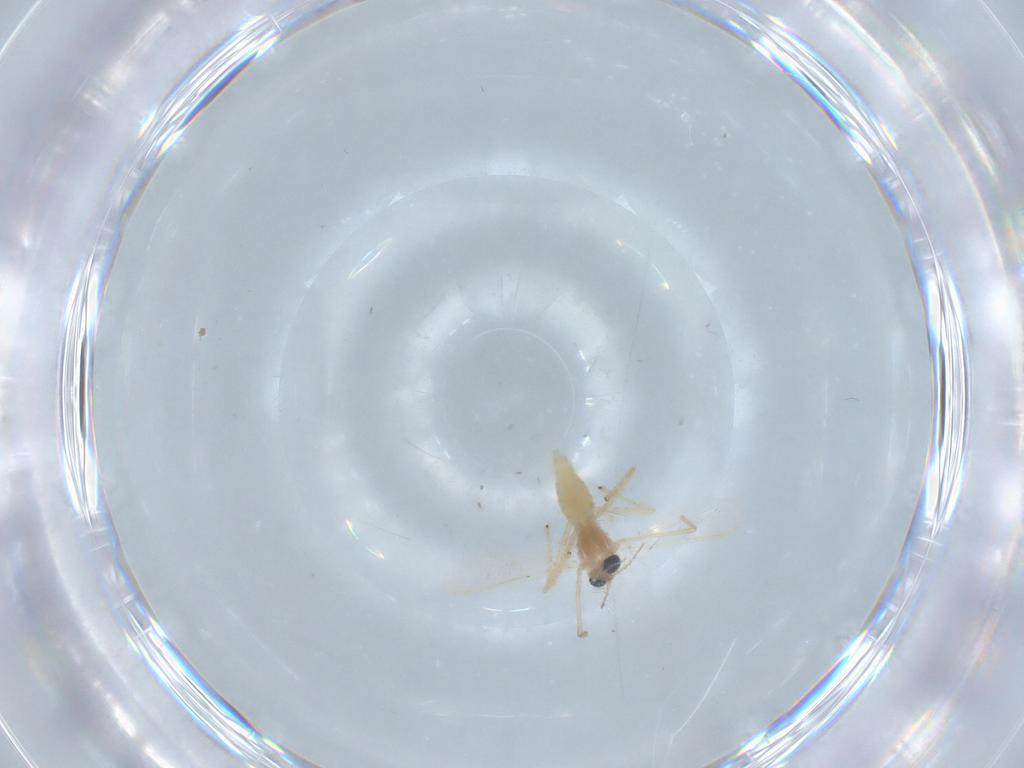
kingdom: Animalia
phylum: Arthropoda
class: Insecta
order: Diptera
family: Chironomidae
